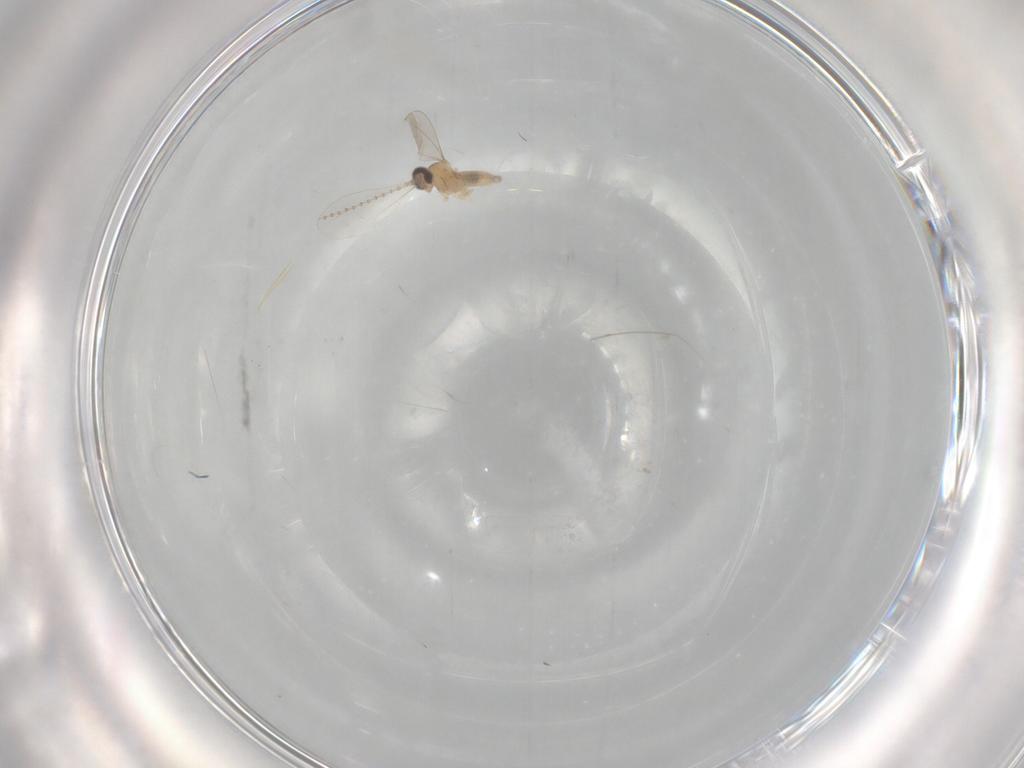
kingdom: Animalia
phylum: Arthropoda
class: Insecta
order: Diptera
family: Cecidomyiidae
